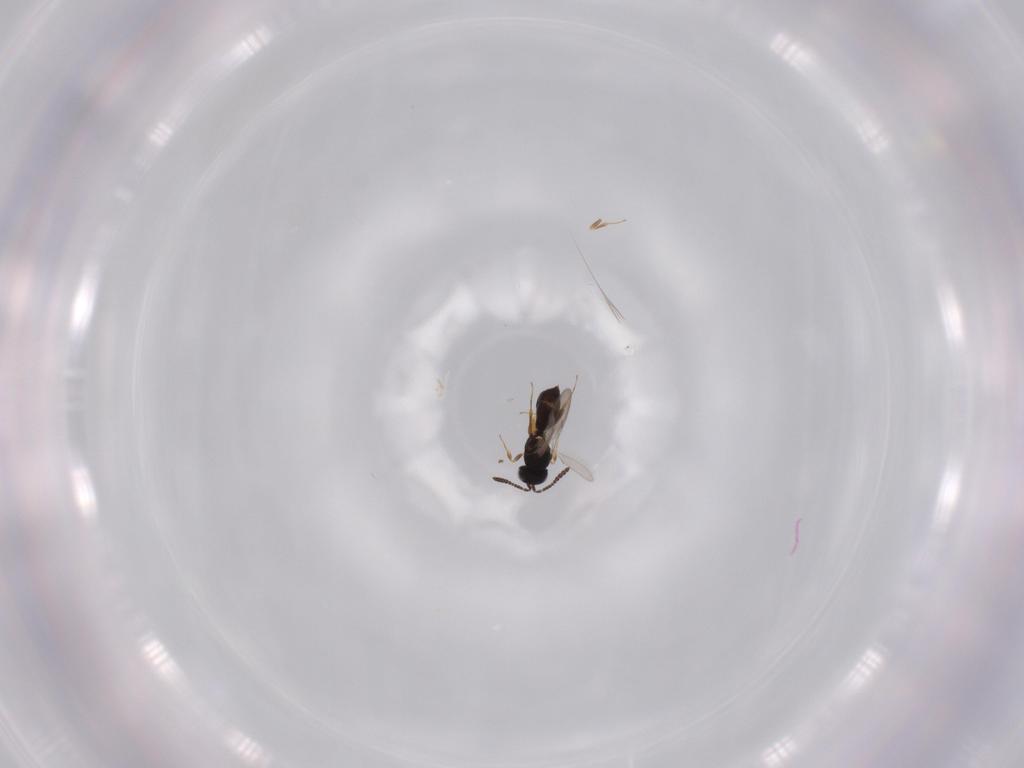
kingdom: Animalia
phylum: Arthropoda
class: Insecta
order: Hymenoptera
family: Scelionidae
